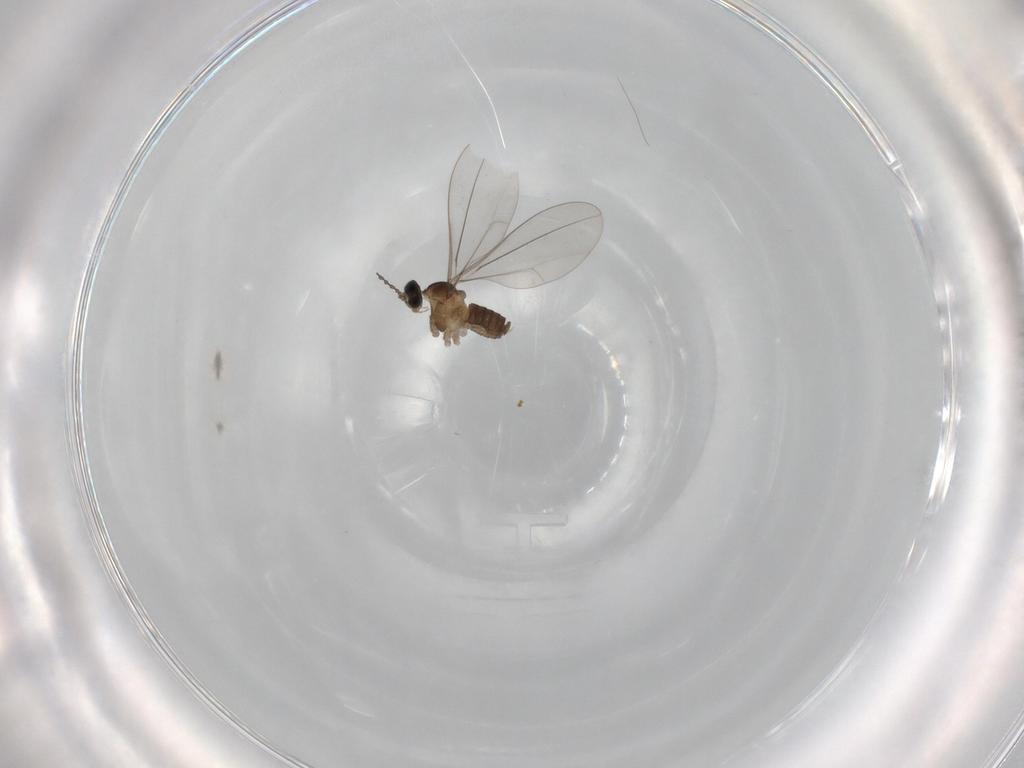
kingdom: Animalia
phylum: Arthropoda
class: Insecta
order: Diptera
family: Cecidomyiidae
